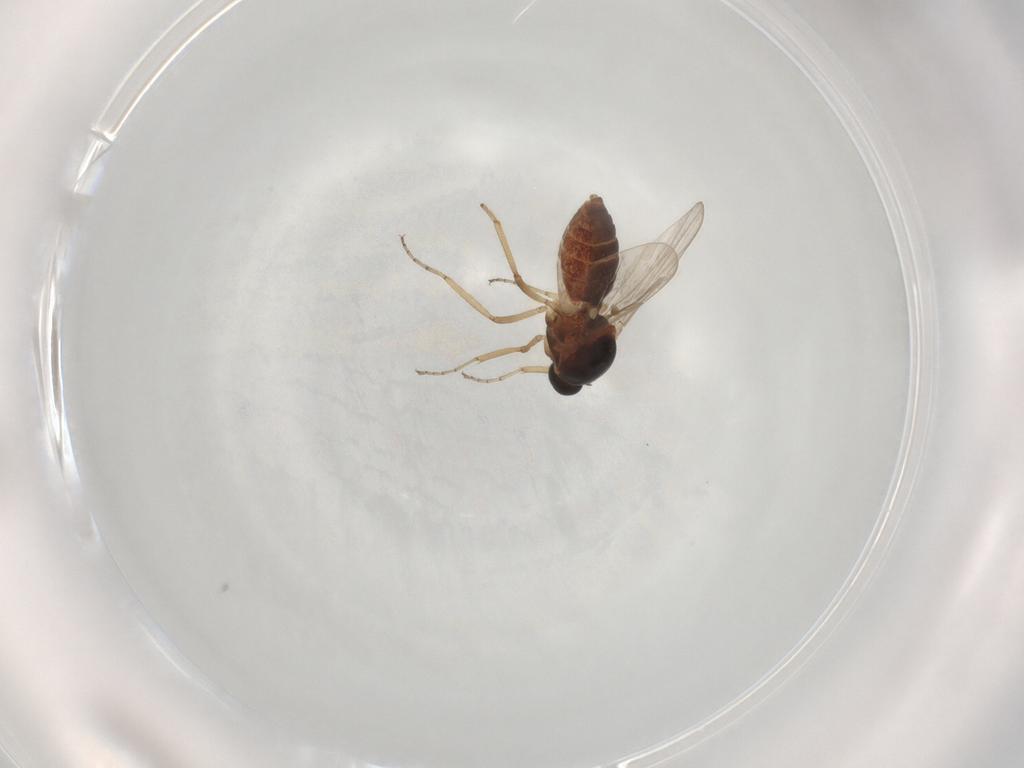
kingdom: Animalia
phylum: Arthropoda
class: Insecta
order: Diptera
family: Ceratopogonidae
